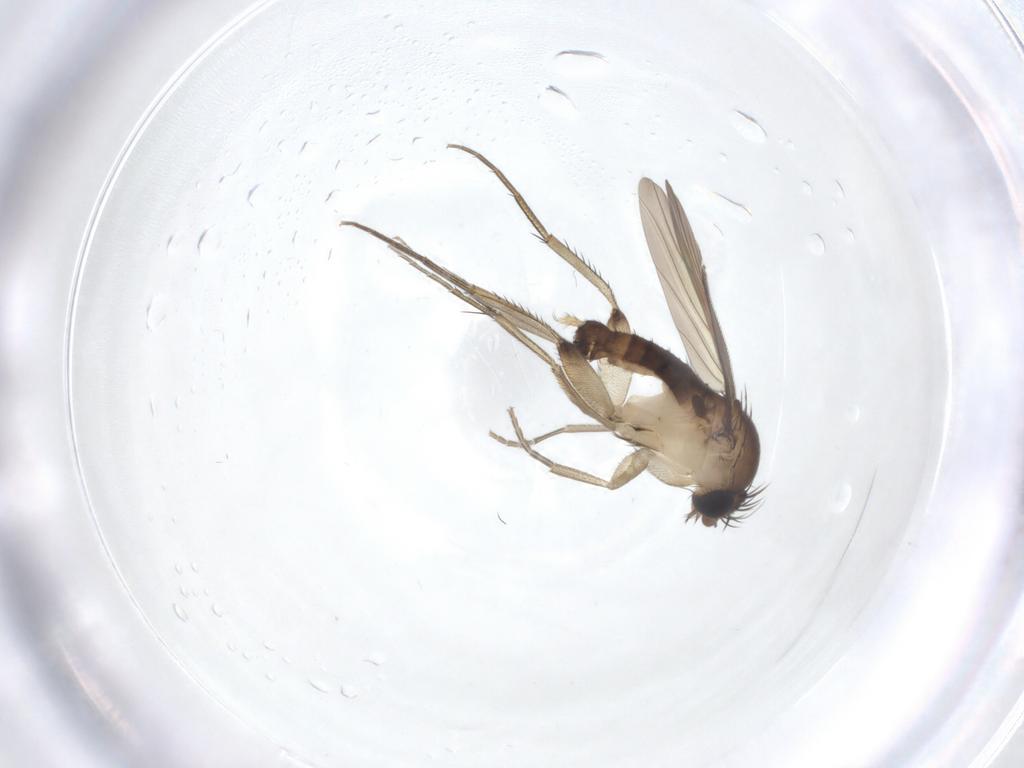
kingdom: Animalia
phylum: Arthropoda
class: Insecta
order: Diptera
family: Phoridae
